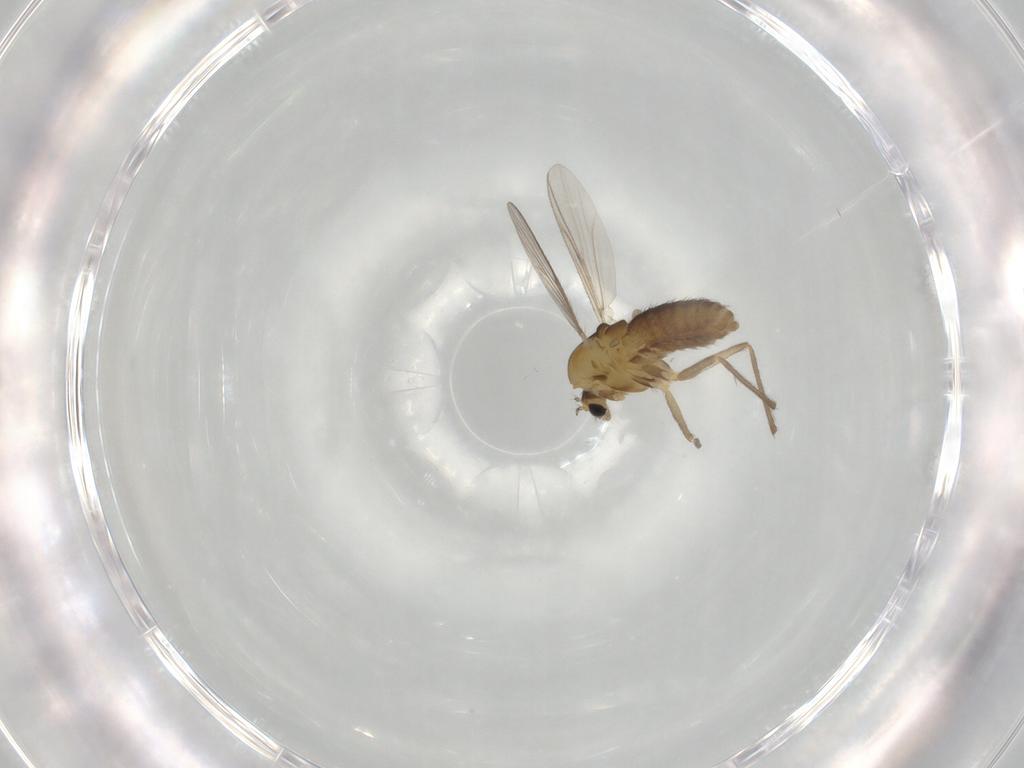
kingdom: Animalia
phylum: Arthropoda
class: Insecta
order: Diptera
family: Chironomidae
